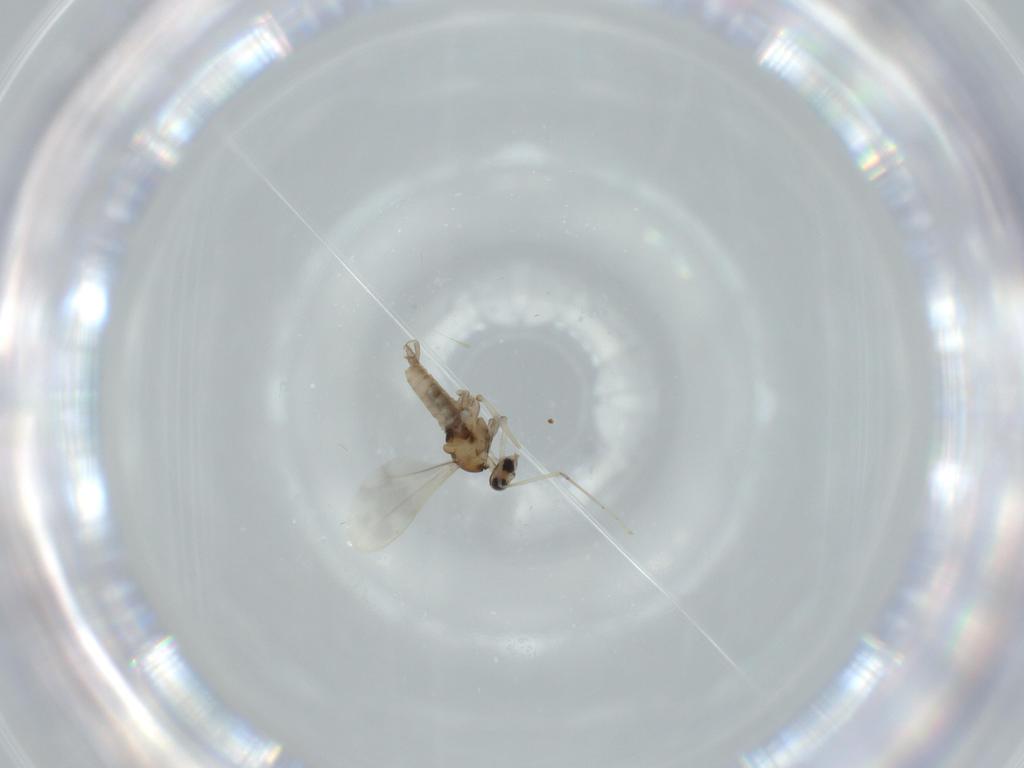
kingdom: Animalia
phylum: Arthropoda
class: Insecta
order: Diptera
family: Cecidomyiidae
